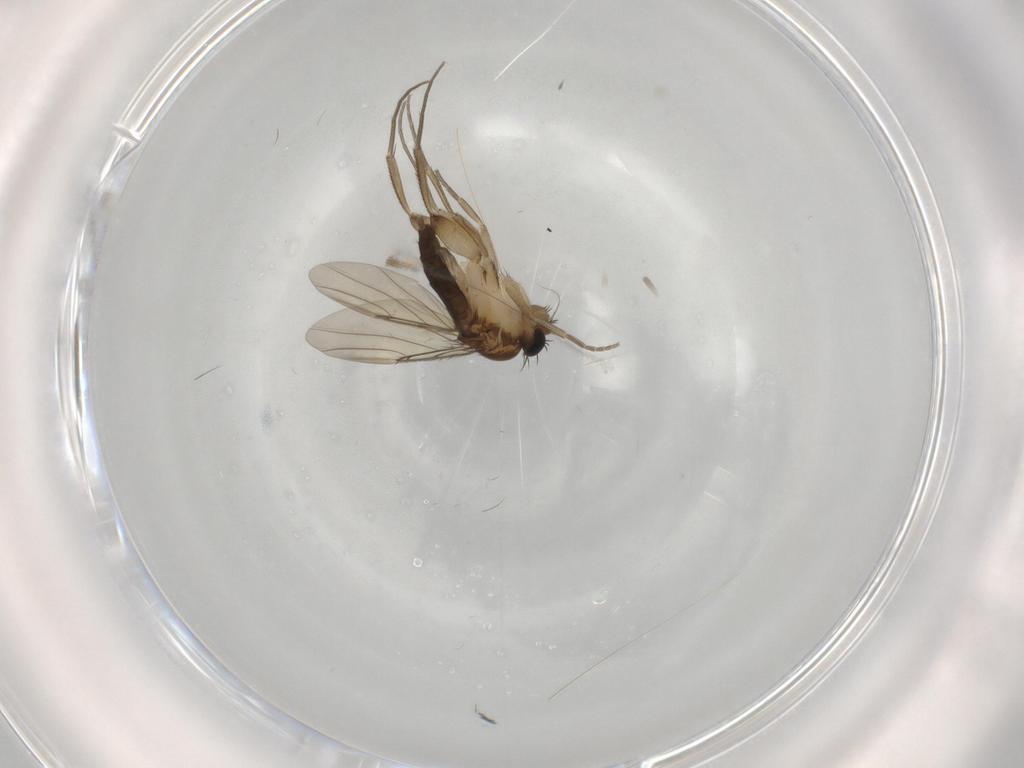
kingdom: Animalia
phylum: Arthropoda
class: Insecta
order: Diptera
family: Phoridae
